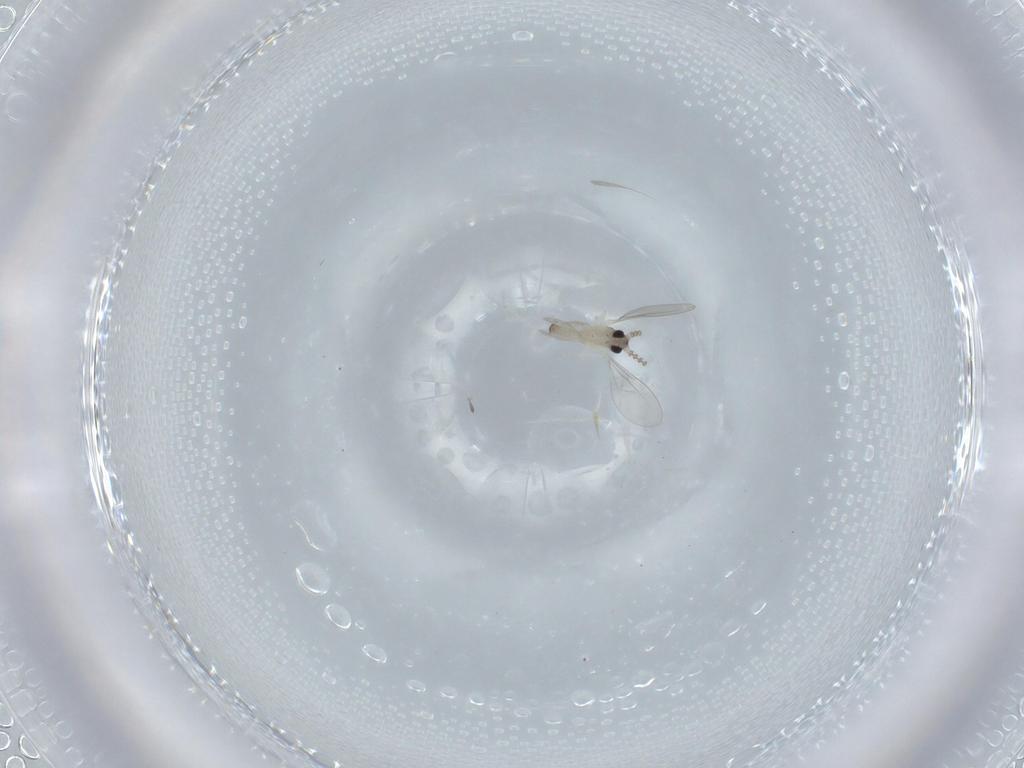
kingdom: Animalia
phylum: Arthropoda
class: Insecta
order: Diptera
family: Cecidomyiidae
